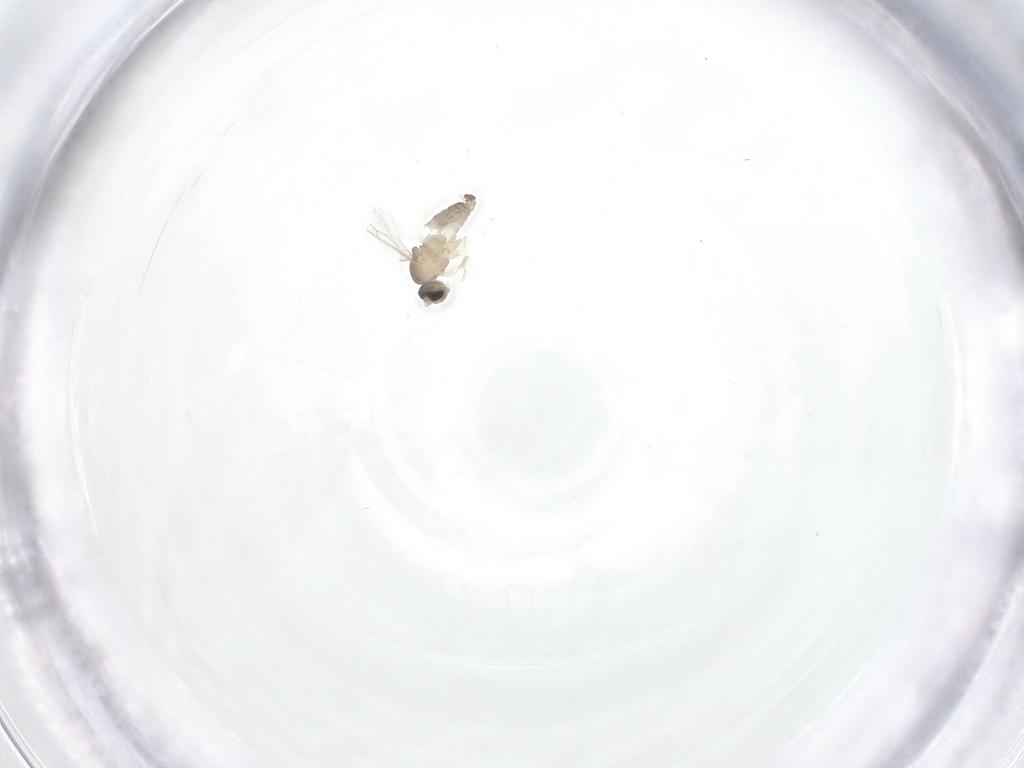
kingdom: Animalia
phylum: Arthropoda
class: Insecta
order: Diptera
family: Cecidomyiidae
